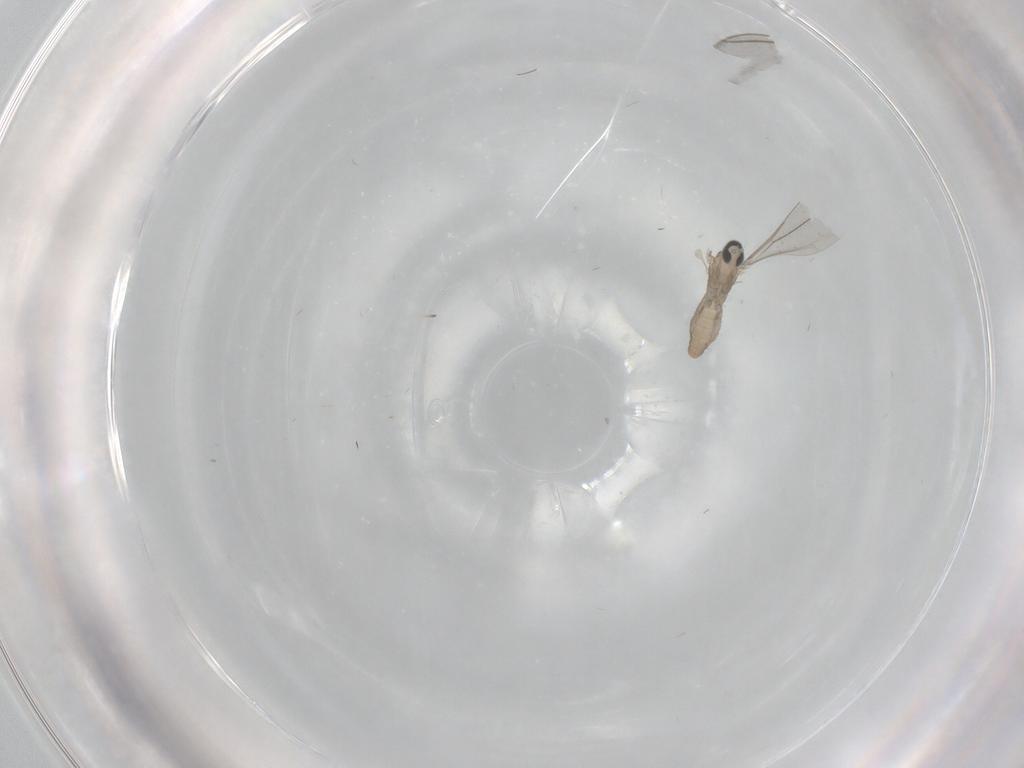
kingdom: Animalia
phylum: Arthropoda
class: Insecta
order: Diptera
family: Cecidomyiidae
